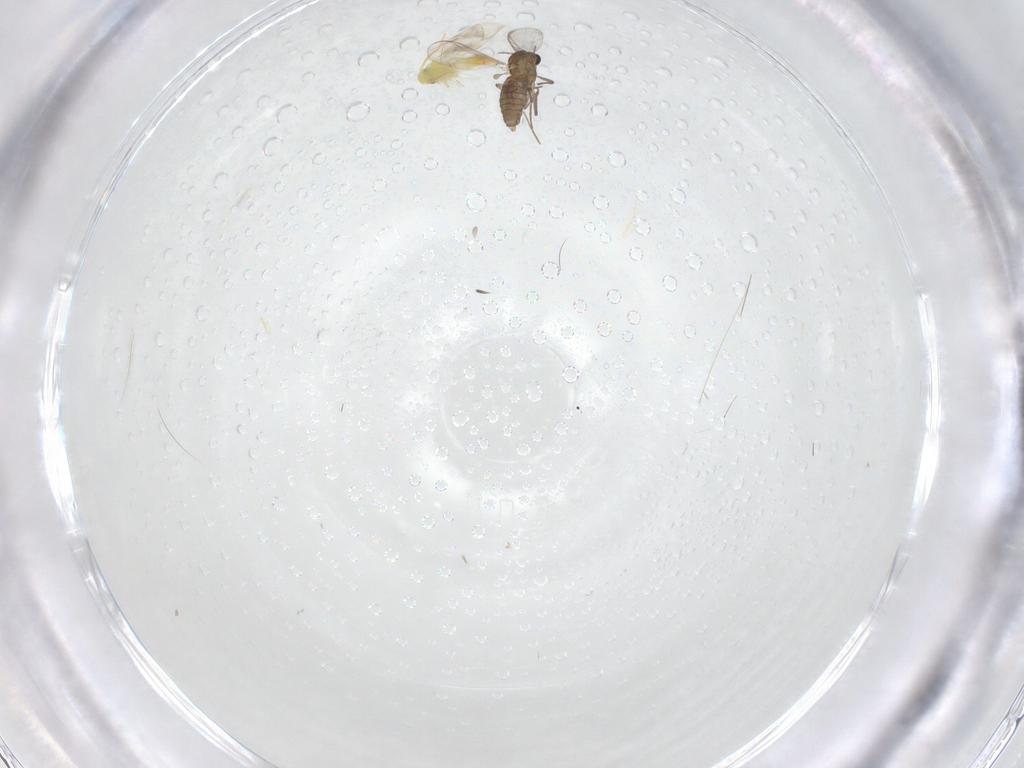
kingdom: Animalia
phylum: Arthropoda
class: Insecta
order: Diptera
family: Chironomidae
